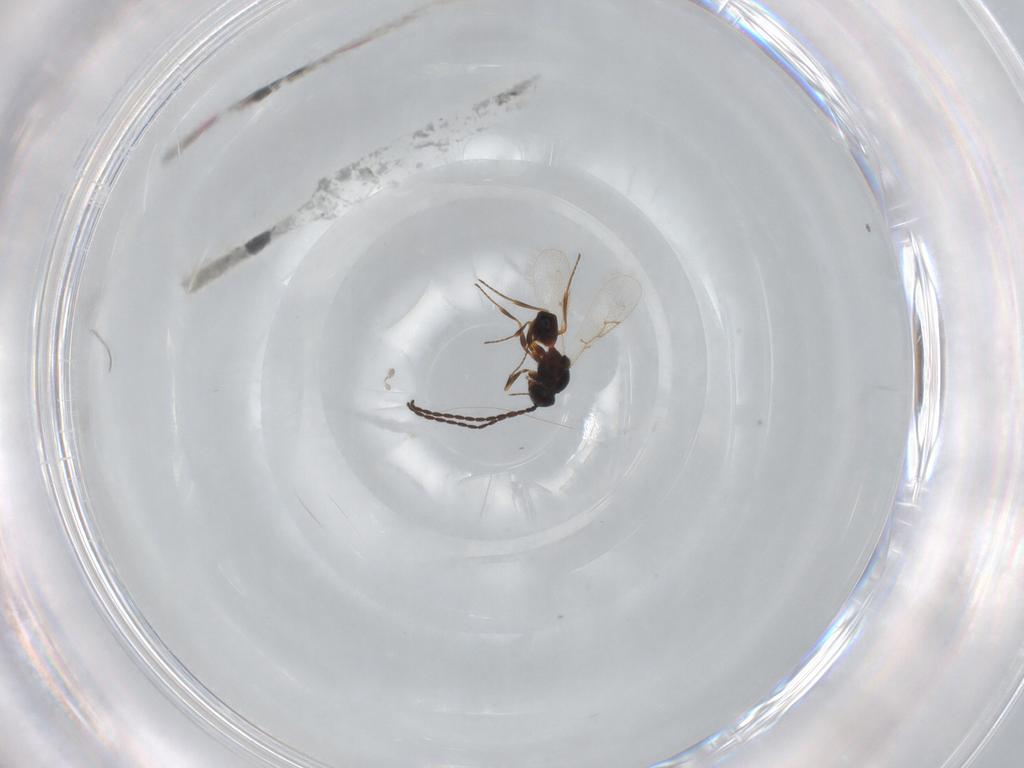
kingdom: Animalia
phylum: Arthropoda
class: Insecta
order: Hymenoptera
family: Figitidae
